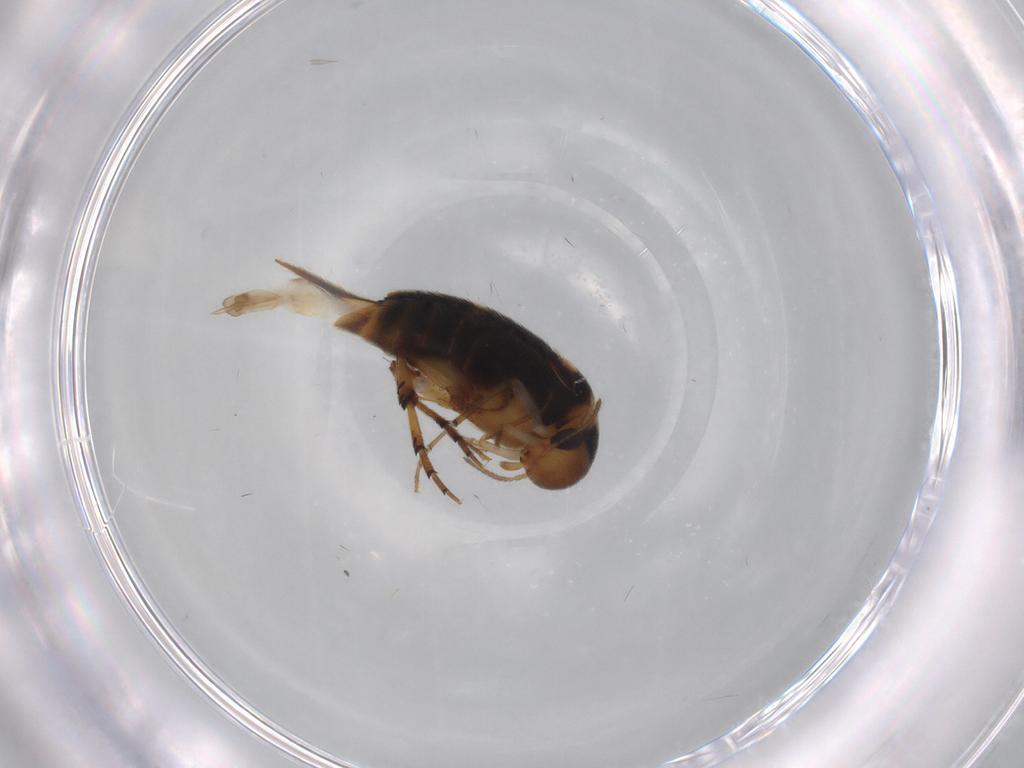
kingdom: Animalia
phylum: Arthropoda
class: Insecta
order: Coleoptera
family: Mordellidae
